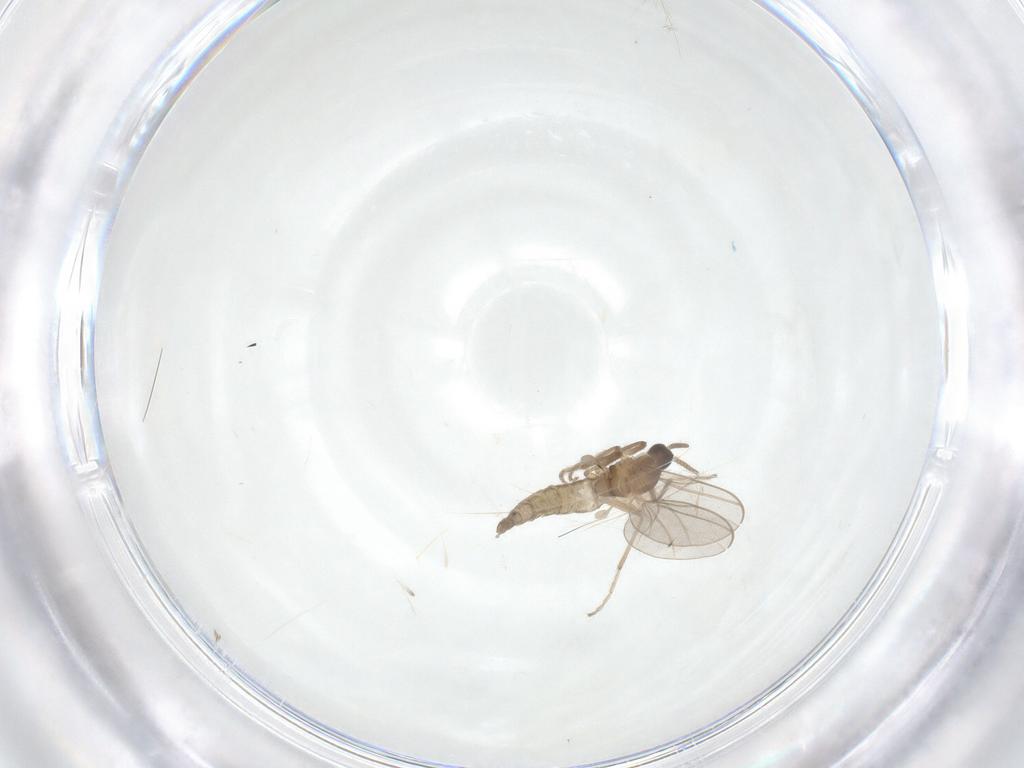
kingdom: Animalia
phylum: Arthropoda
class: Insecta
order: Diptera
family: Cecidomyiidae
